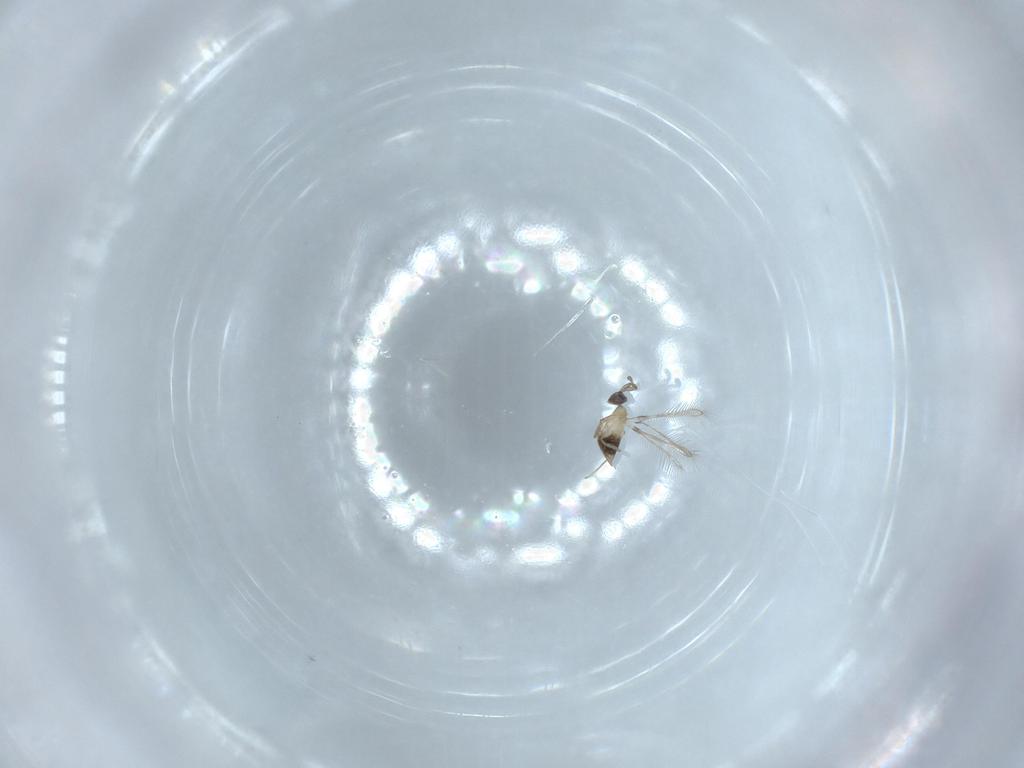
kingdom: Animalia
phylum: Arthropoda
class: Insecta
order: Hymenoptera
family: Mymaridae
